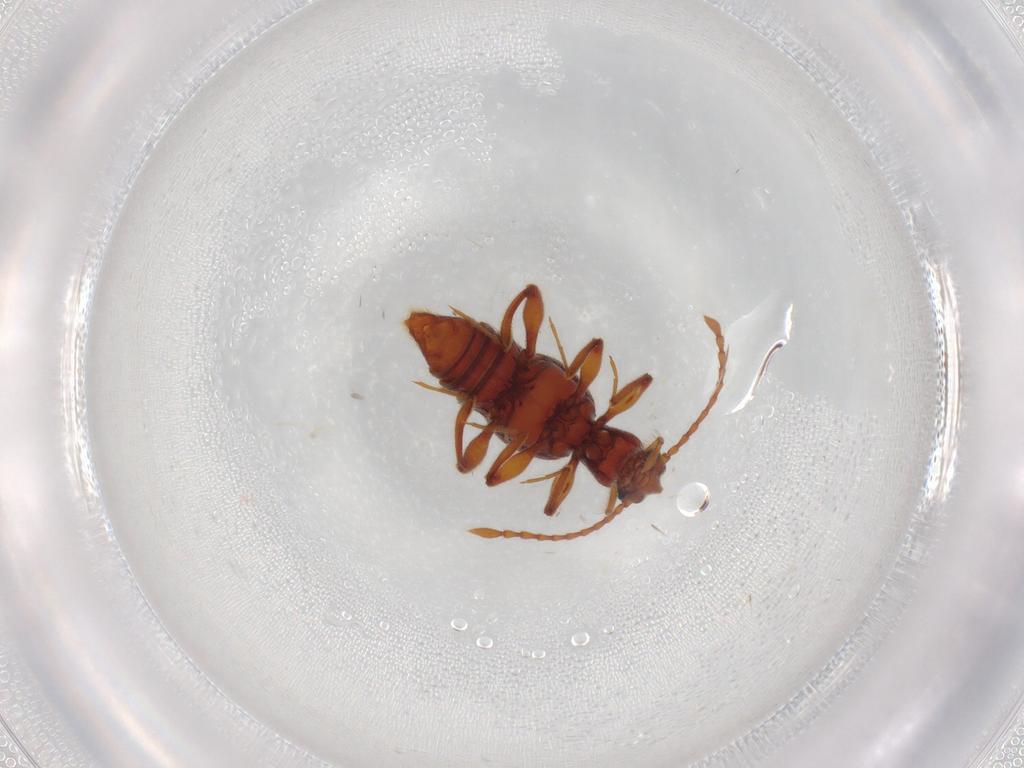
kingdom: Animalia
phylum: Arthropoda
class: Insecta
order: Coleoptera
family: Staphylinidae
